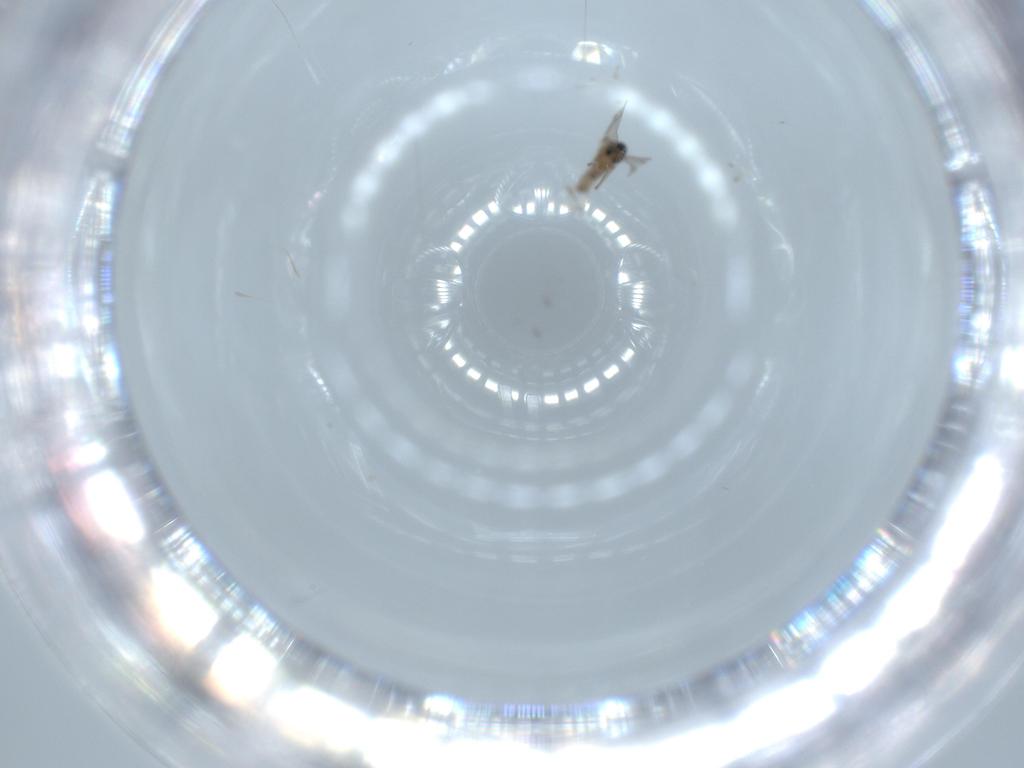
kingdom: Animalia
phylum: Arthropoda
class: Insecta
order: Diptera
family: Cecidomyiidae
